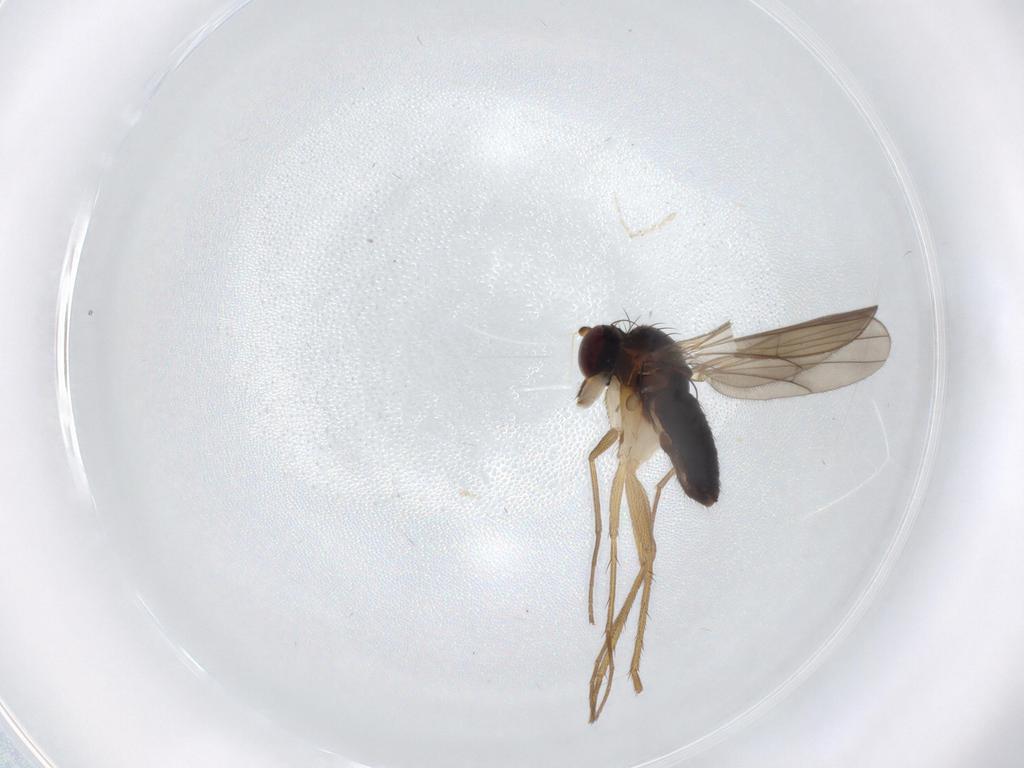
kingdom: Animalia
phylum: Arthropoda
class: Insecta
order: Diptera
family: Dolichopodidae
